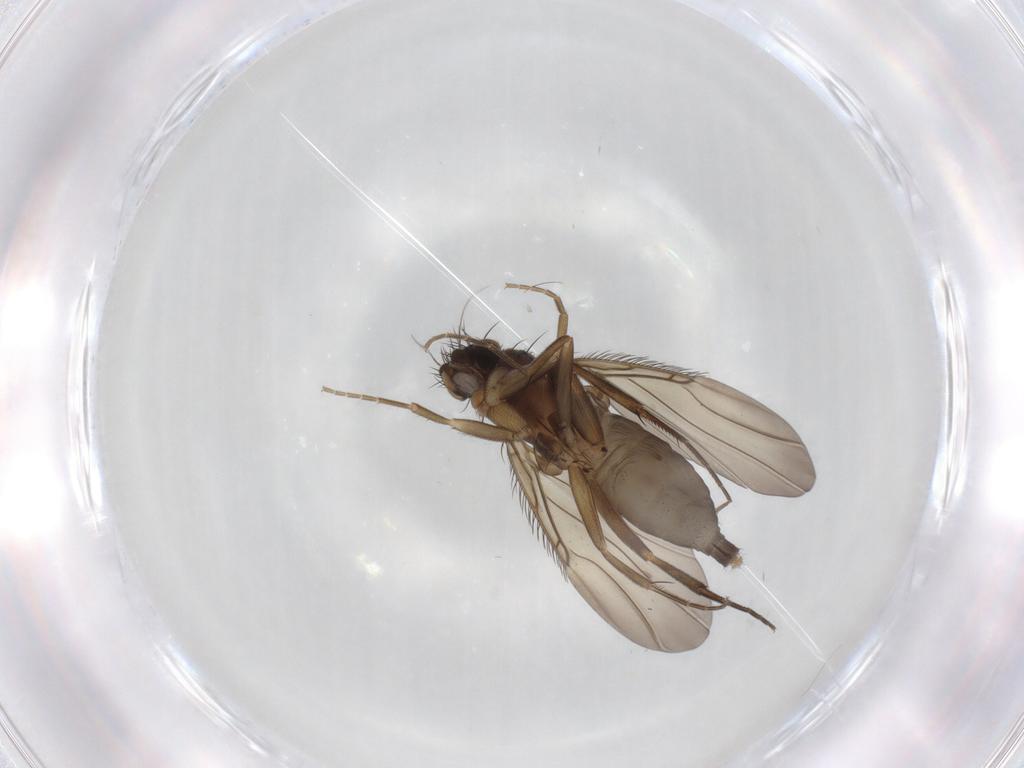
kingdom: Animalia
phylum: Arthropoda
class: Insecta
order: Diptera
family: Phoridae
